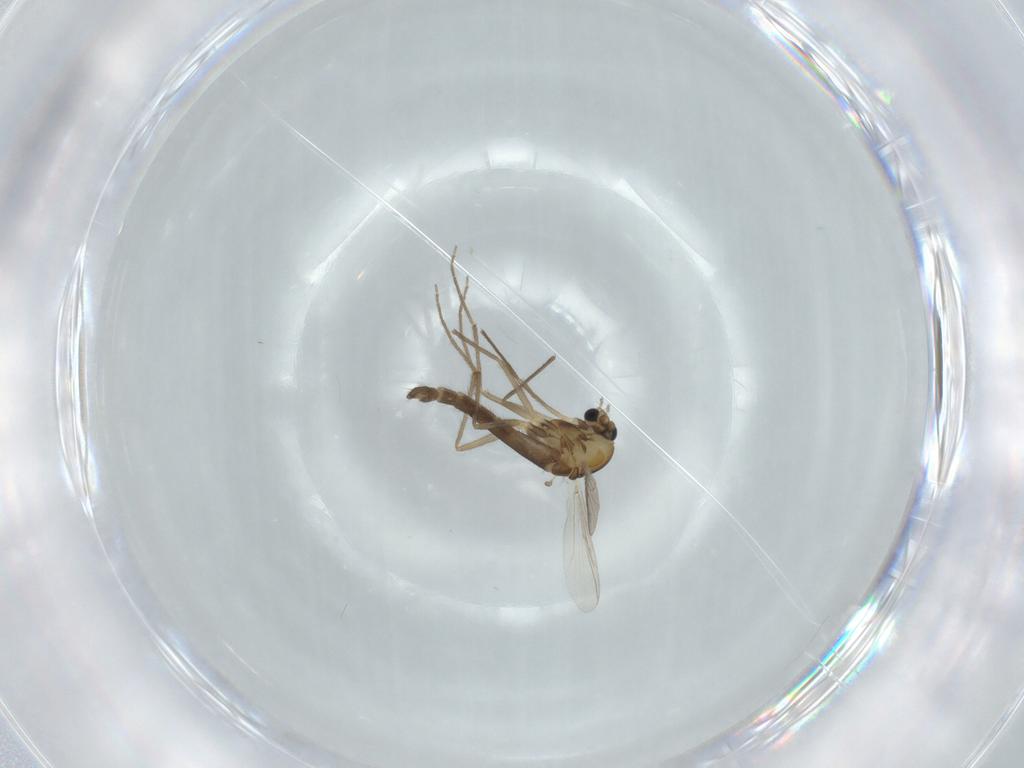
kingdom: Animalia
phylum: Arthropoda
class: Insecta
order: Diptera
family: Chironomidae
